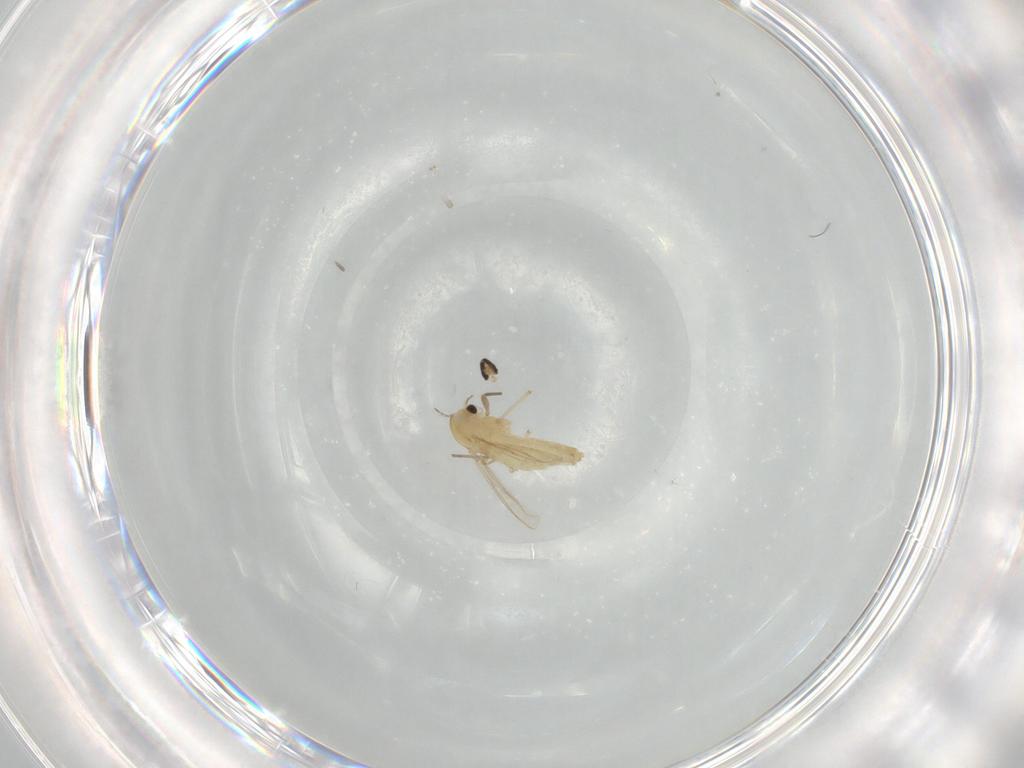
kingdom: Animalia
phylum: Arthropoda
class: Insecta
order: Diptera
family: Chironomidae
